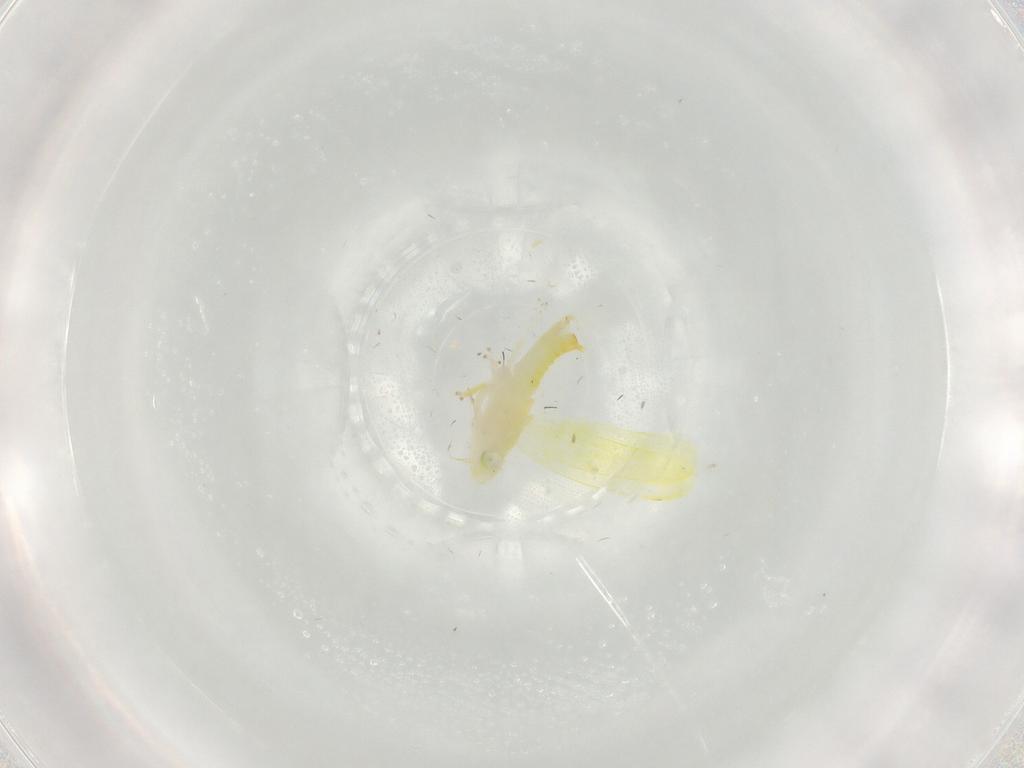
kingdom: Animalia
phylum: Arthropoda
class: Insecta
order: Hemiptera
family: Cicadellidae
